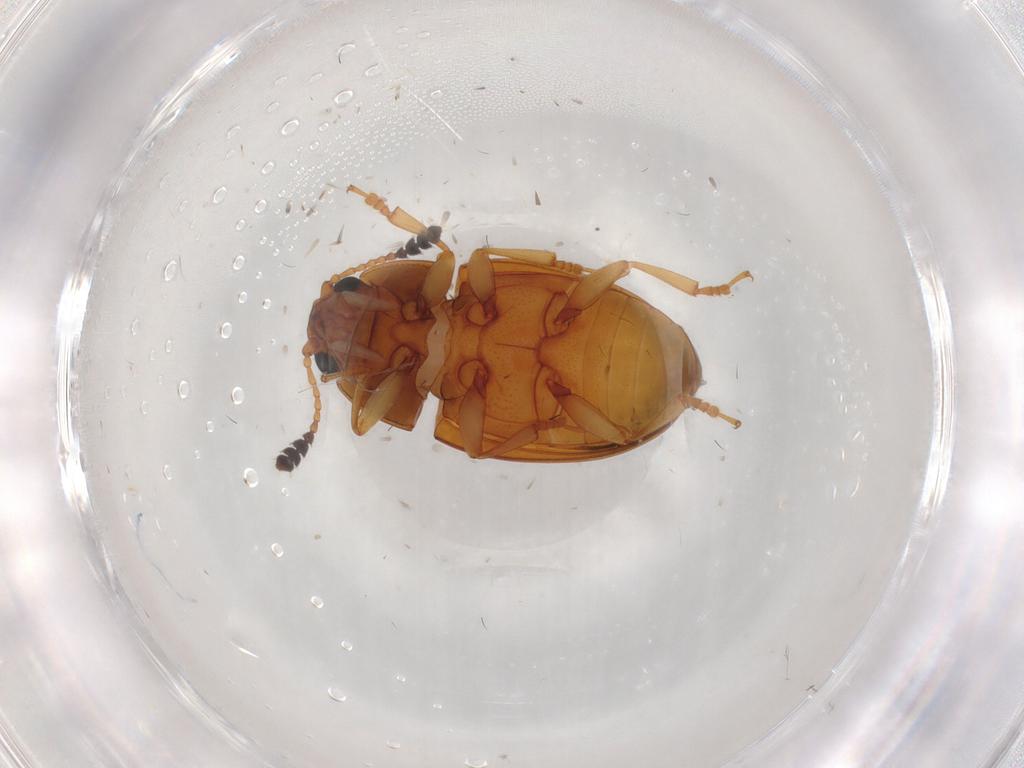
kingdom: Animalia
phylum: Arthropoda
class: Insecta
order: Coleoptera
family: Erotylidae
